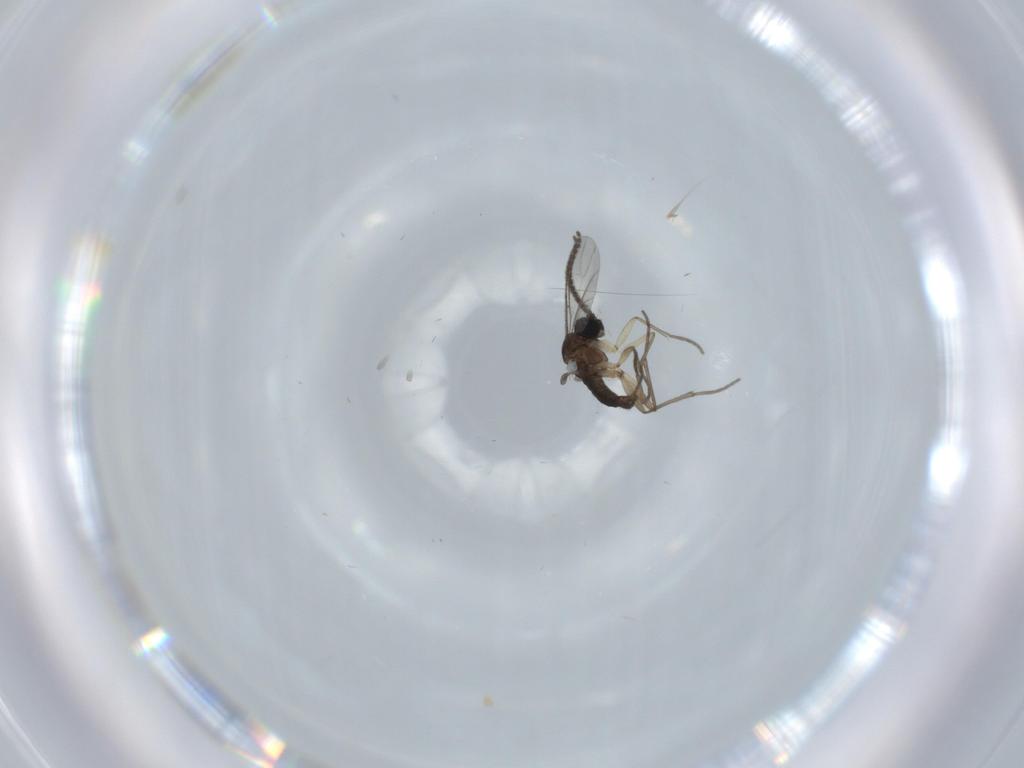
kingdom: Animalia
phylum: Arthropoda
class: Insecta
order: Diptera
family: Sciaridae
